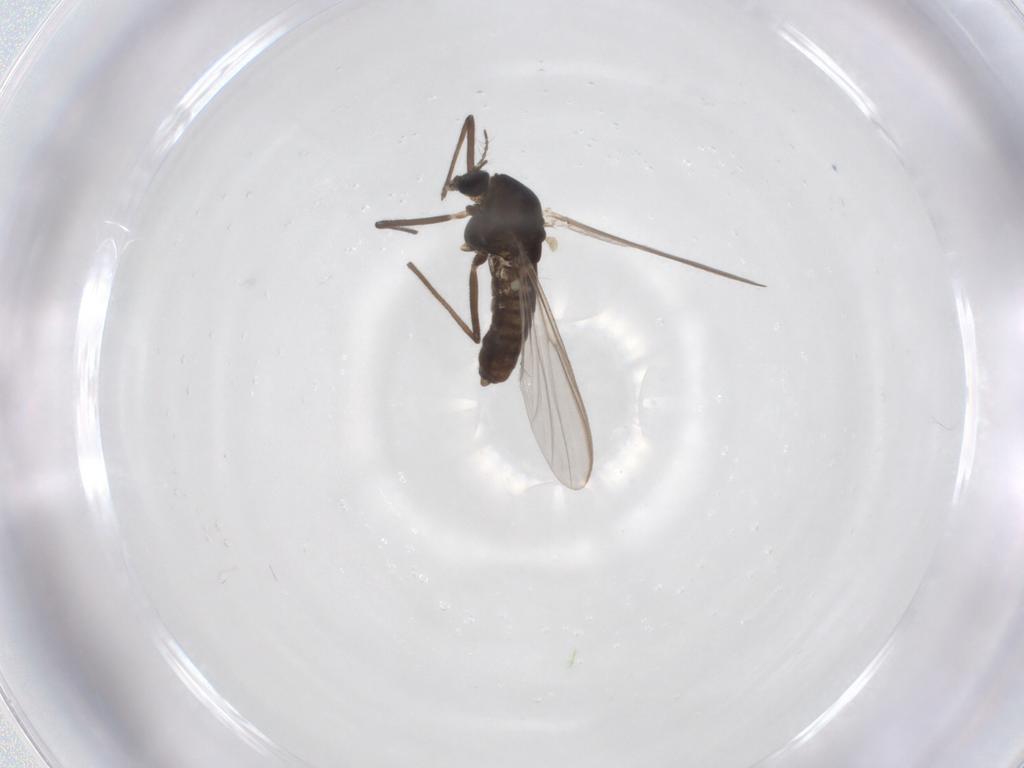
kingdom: Animalia
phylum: Arthropoda
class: Insecta
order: Diptera
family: Chironomidae
